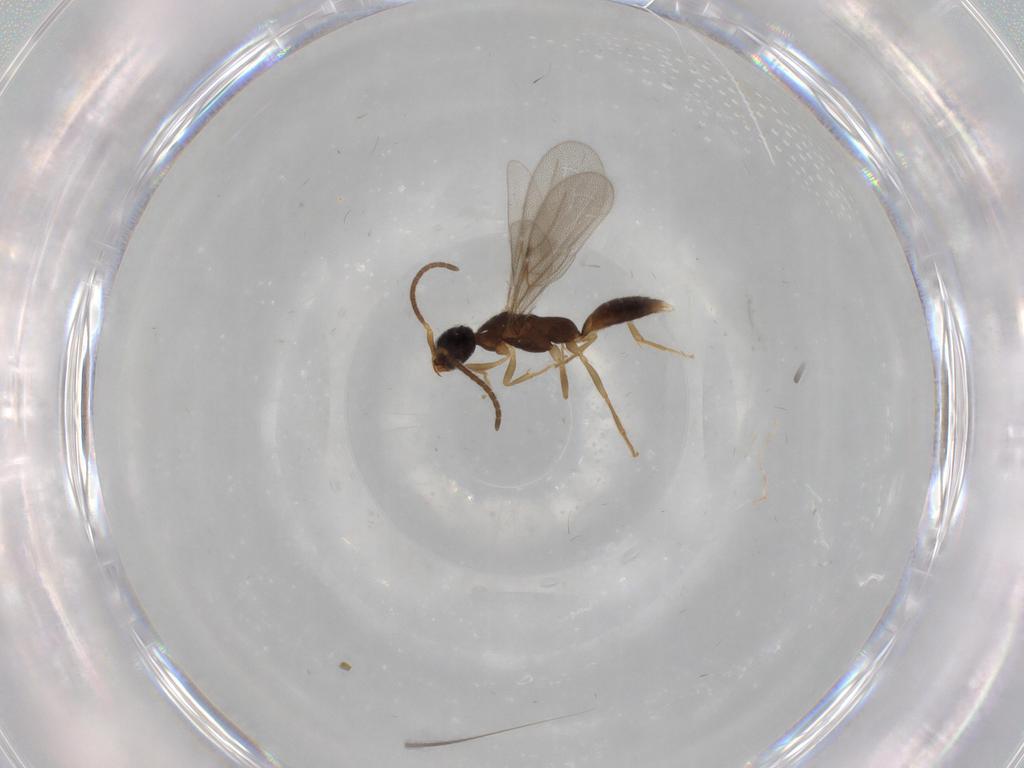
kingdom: Animalia
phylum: Arthropoda
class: Insecta
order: Hymenoptera
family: Bethylidae
